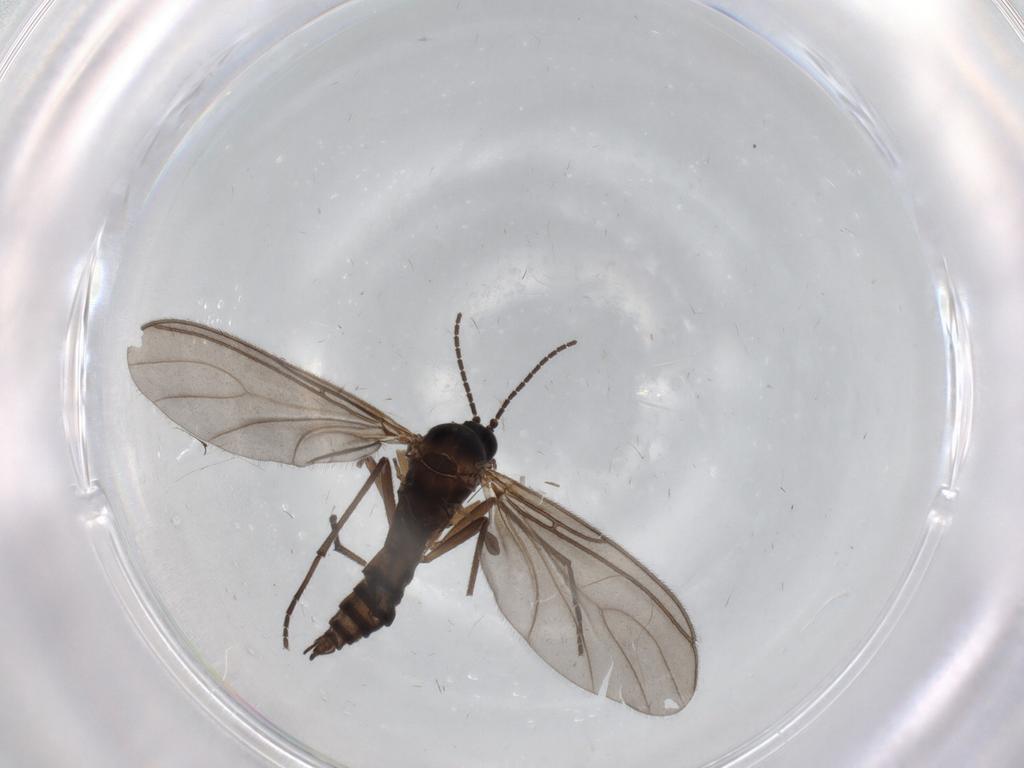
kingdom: Animalia
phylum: Arthropoda
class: Insecta
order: Diptera
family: Sciaridae
